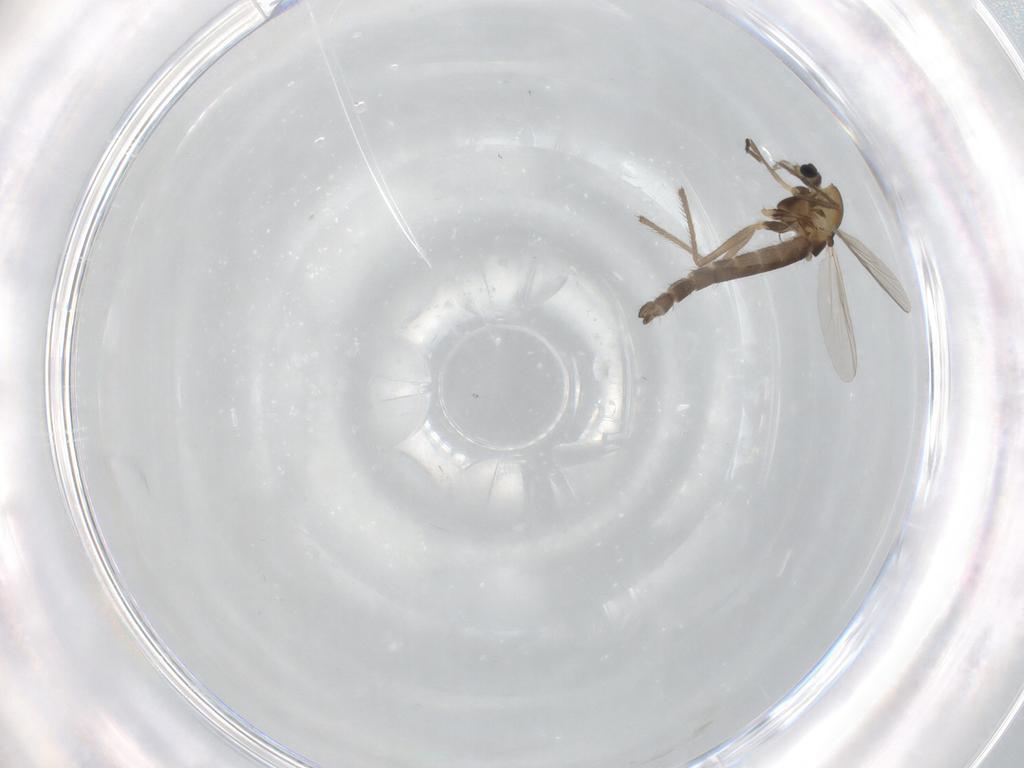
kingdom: Animalia
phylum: Arthropoda
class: Insecta
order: Diptera
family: Chironomidae
